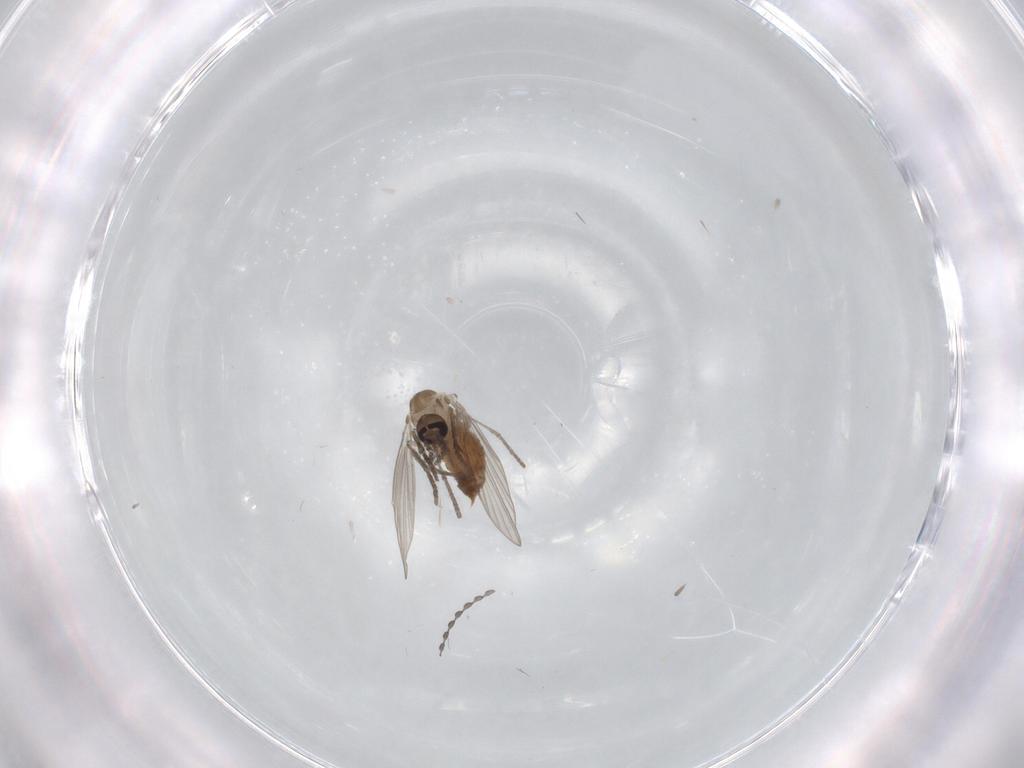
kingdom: Animalia
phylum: Arthropoda
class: Insecta
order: Diptera
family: Psychodidae
